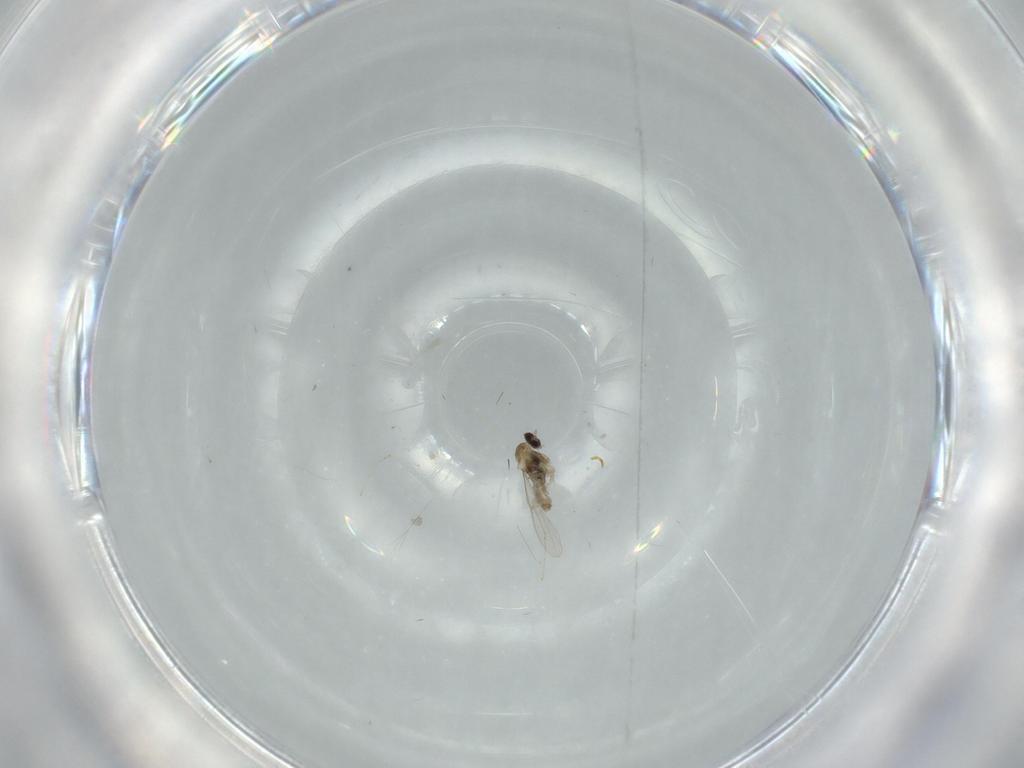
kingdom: Animalia
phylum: Arthropoda
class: Insecta
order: Diptera
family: Cecidomyiidae
